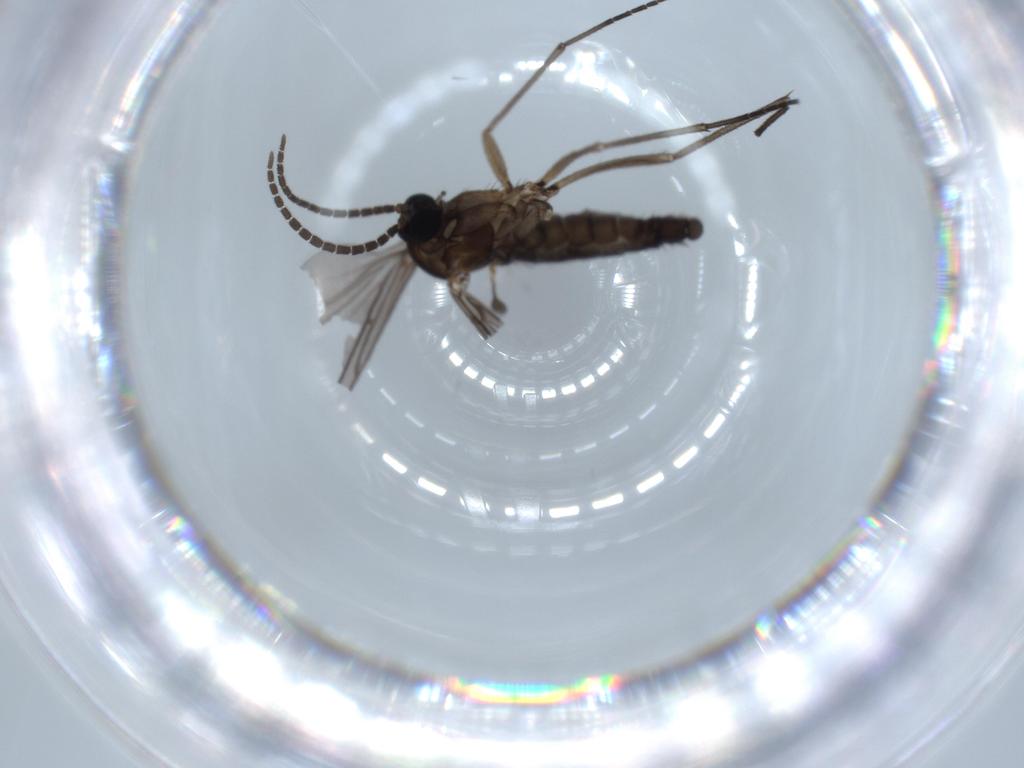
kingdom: Animalia
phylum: Arthropoda
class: Insecta
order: Diptera
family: Sciaridae
